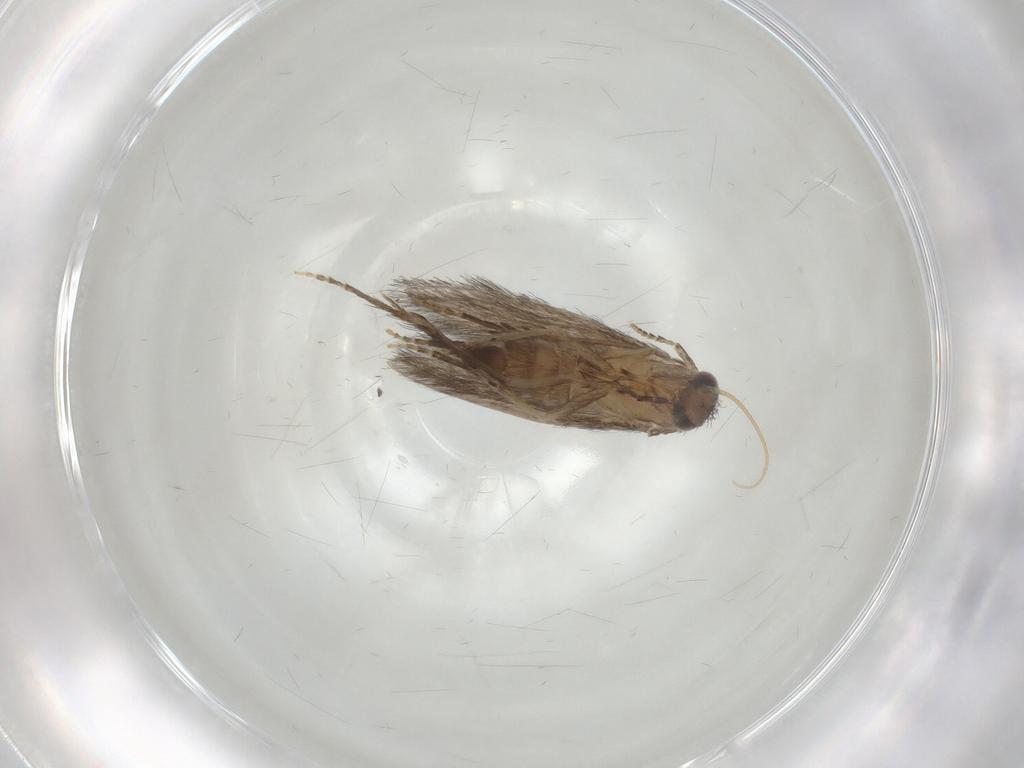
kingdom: Animalia
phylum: Arthropoda
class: Insecta
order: Trichoptera
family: Hydroptilidae
